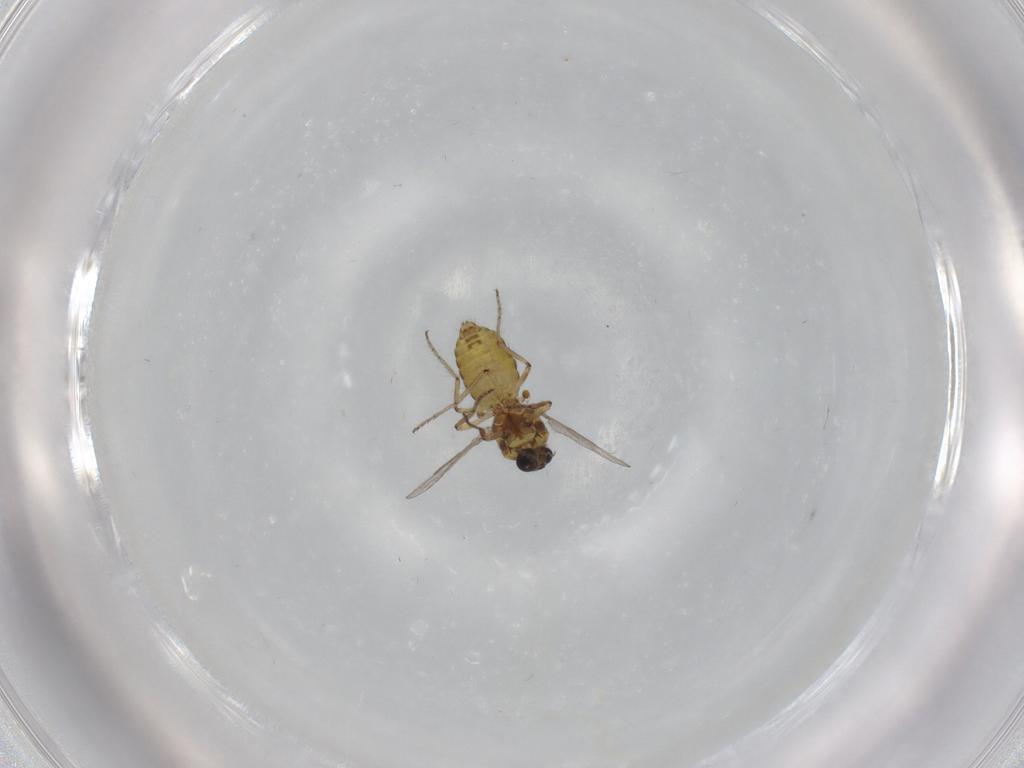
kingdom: Animalia
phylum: Arthropoda
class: Insecta
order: Diptera
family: Ceratopogonidae
